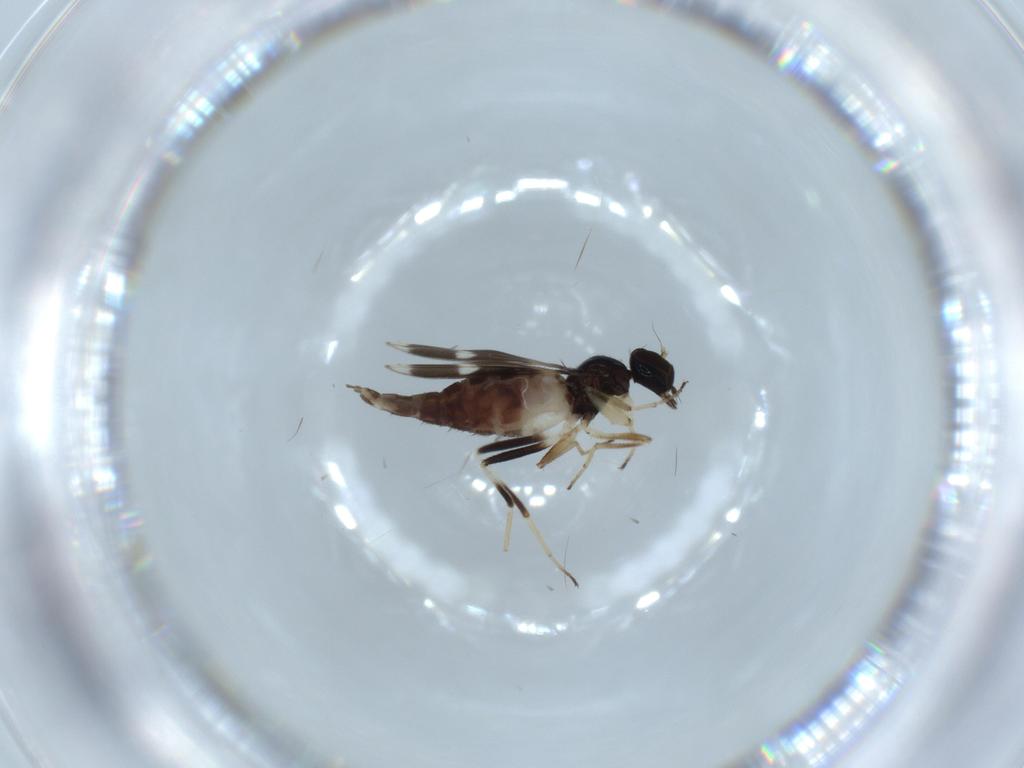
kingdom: Animalia
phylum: Arthropoda
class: Insecta
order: Diptera
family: Hybotidae
